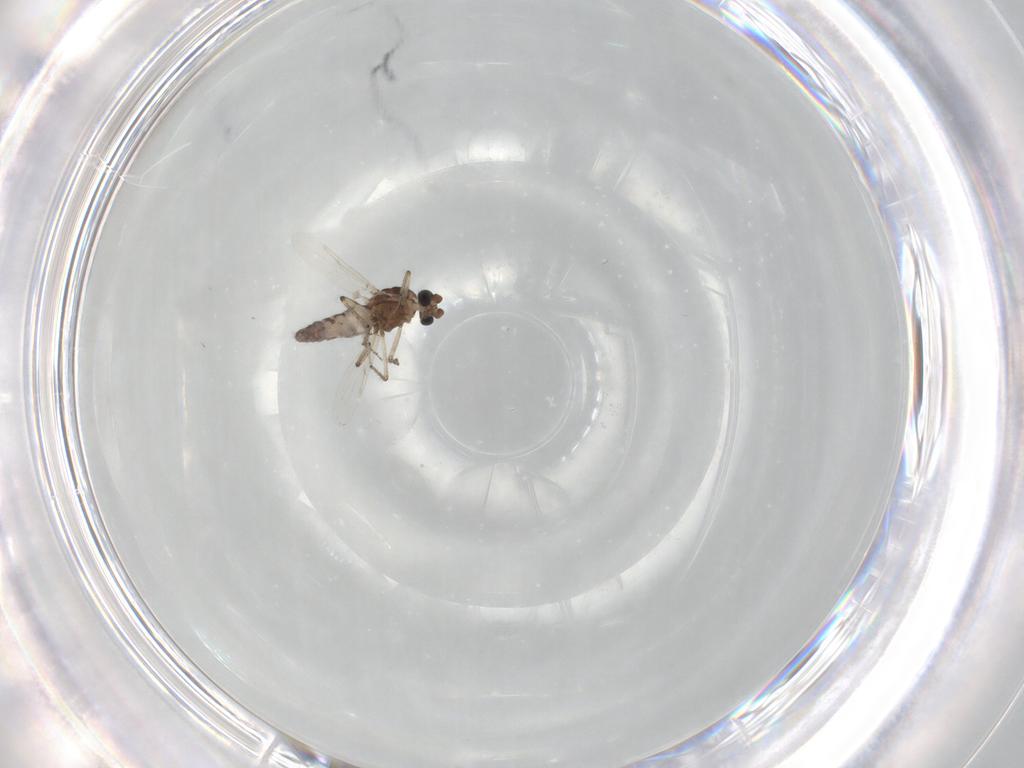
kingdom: Animalia
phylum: Arthropoda
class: Insecta
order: Diptera
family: Ceratopogonidae
